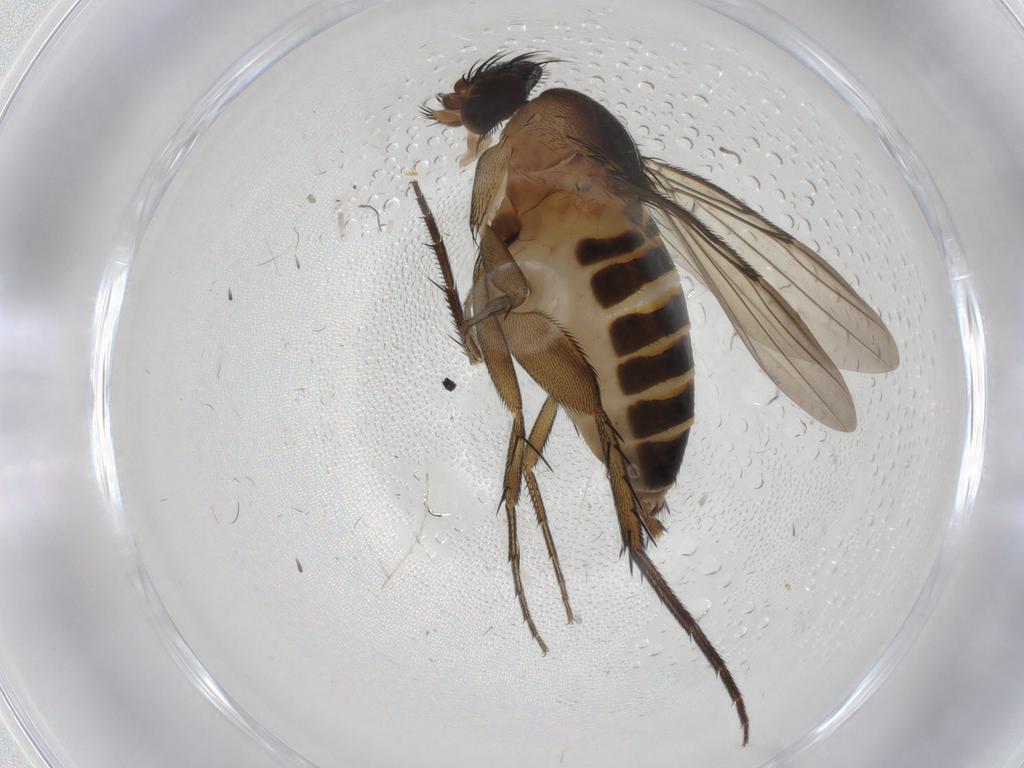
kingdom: Animalia
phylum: Arthropoda
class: Insecta
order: Diptera
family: Phoridae
